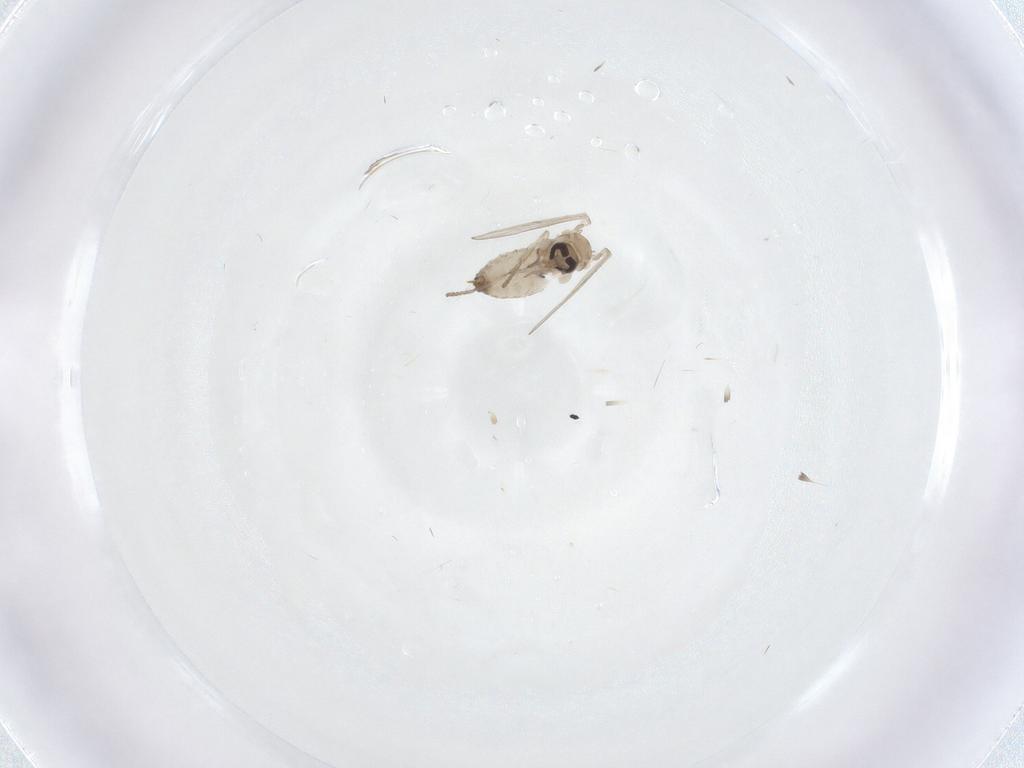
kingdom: Animalia
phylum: Arthropoda
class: Insecta
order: Diptera
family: Psychodidae
